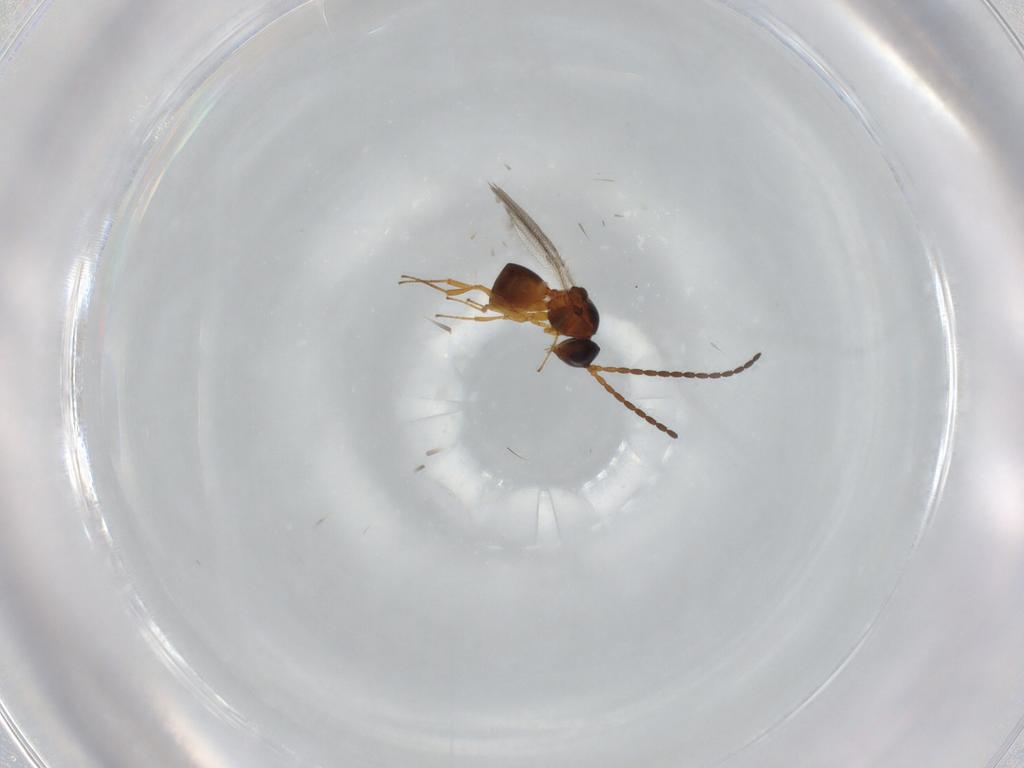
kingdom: Animalia
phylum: Arthropoda
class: Insecta
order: Hymenoptera
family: Figitidae
